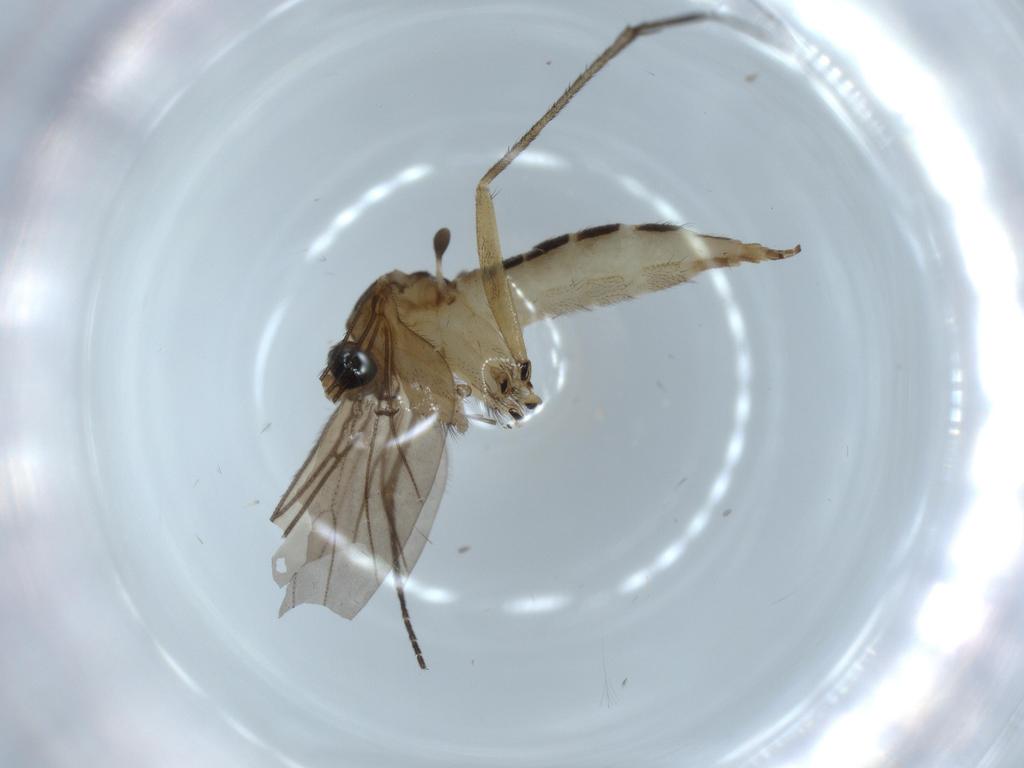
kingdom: Animalia
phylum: Arthropoda
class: Insecta
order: Diptera
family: Sciaridae
